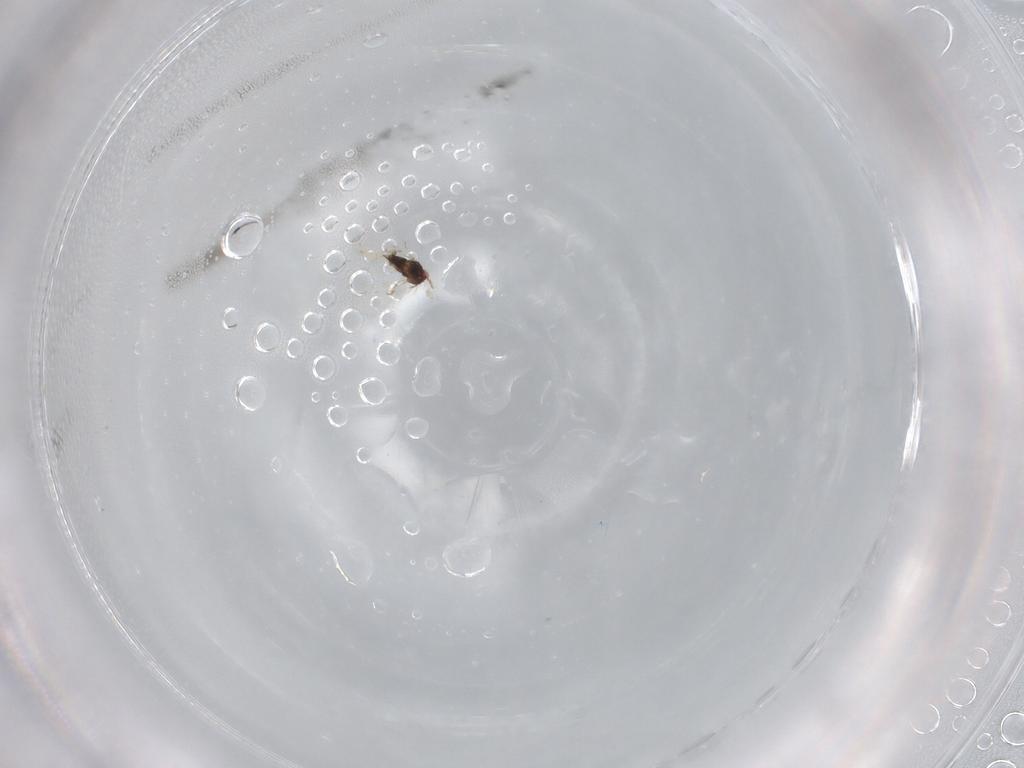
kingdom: Animalia
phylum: Arthropoda
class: Insecta
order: Hymenoptera
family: Trichogrammatidae
